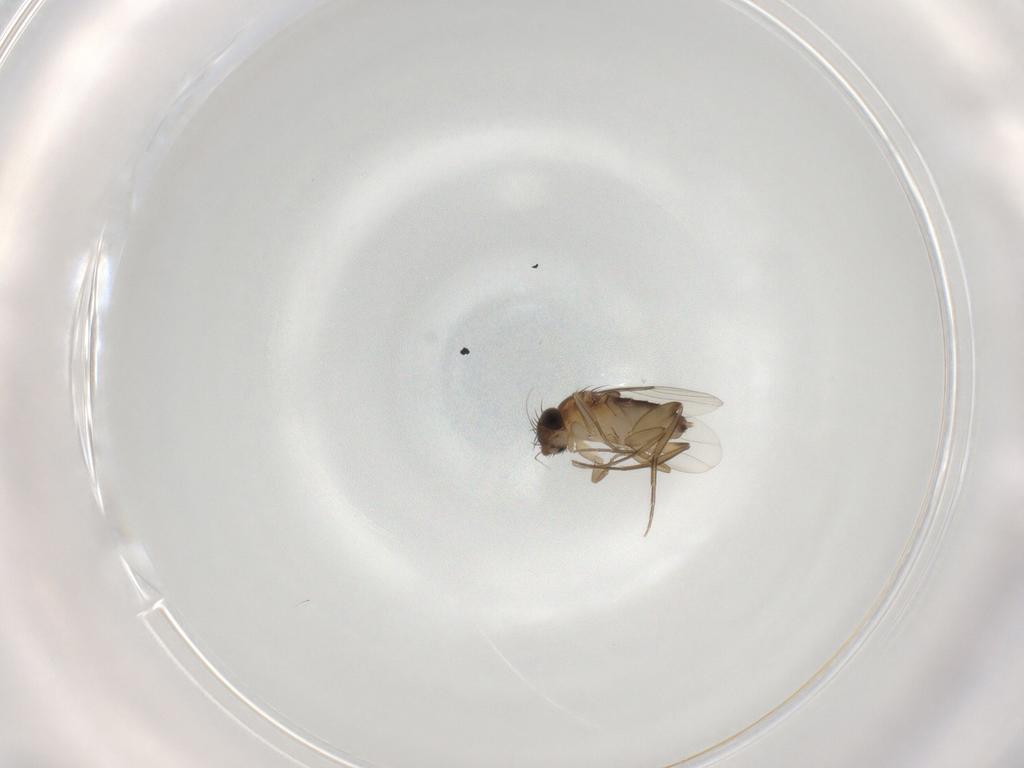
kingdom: Animalia
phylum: Arthropoda
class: Insecta
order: Diptera
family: Phoridae
